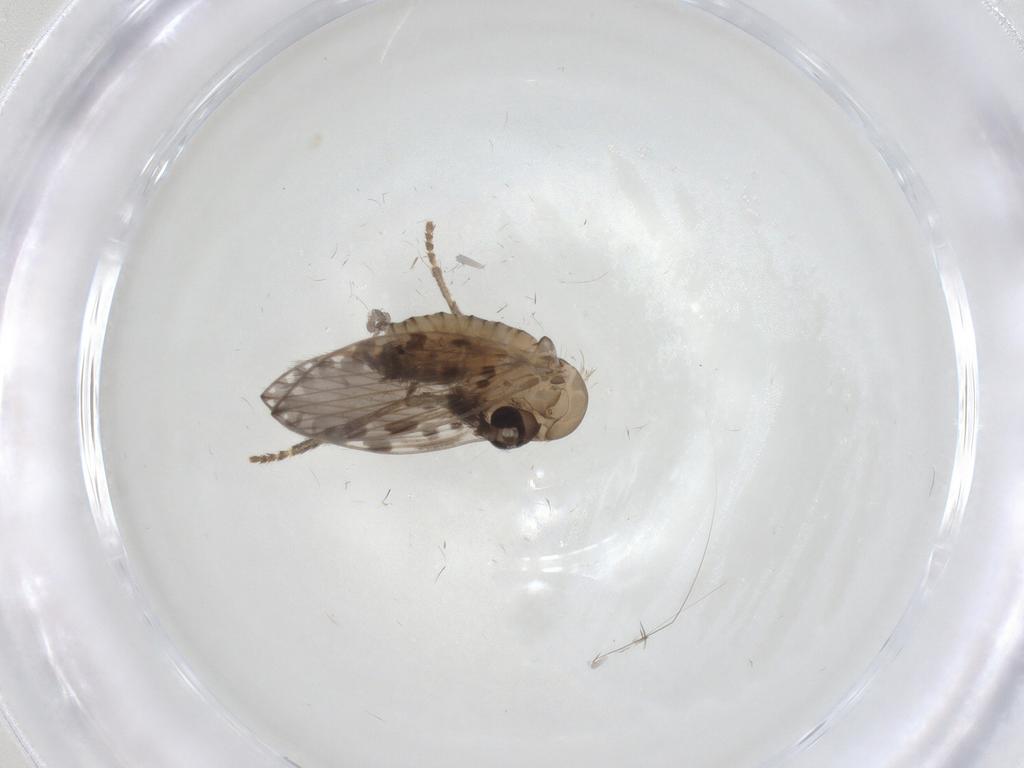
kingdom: Animalia
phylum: Arthropoda
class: Insecta
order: Diptera
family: Psychodidae
